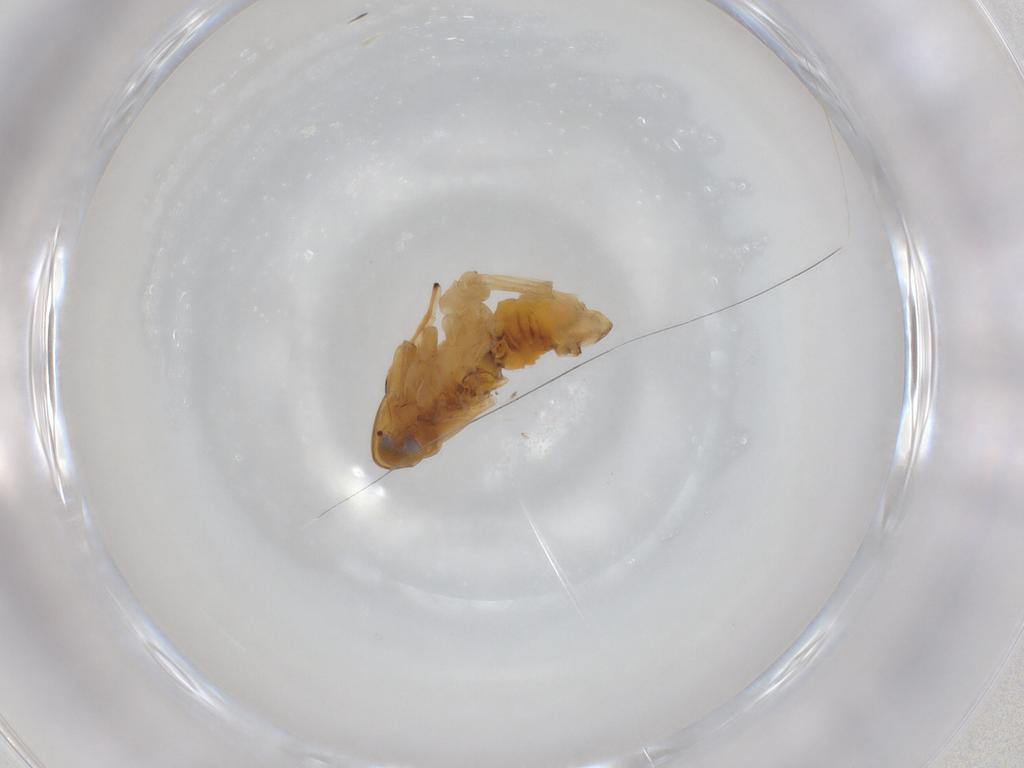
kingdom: Animalia
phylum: Arthropoda
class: Insecta
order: Hemiptera
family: Delphacidae
